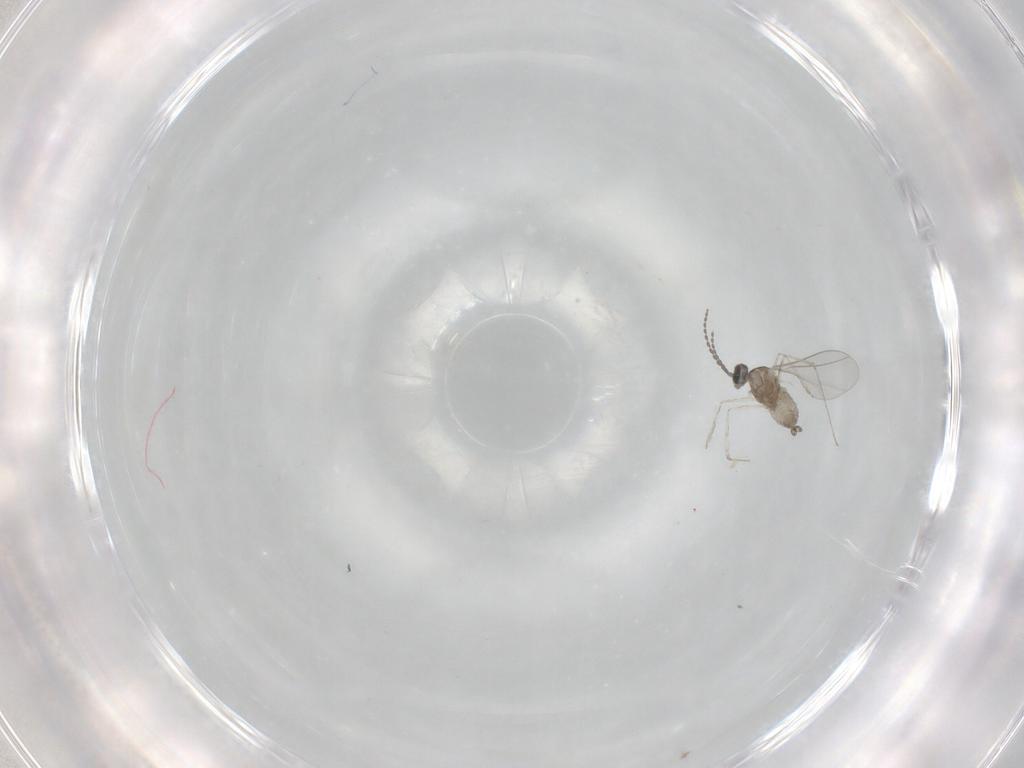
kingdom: Animalia
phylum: Arthropoda
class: Insecta
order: Diptera
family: Cecidomyiidae
